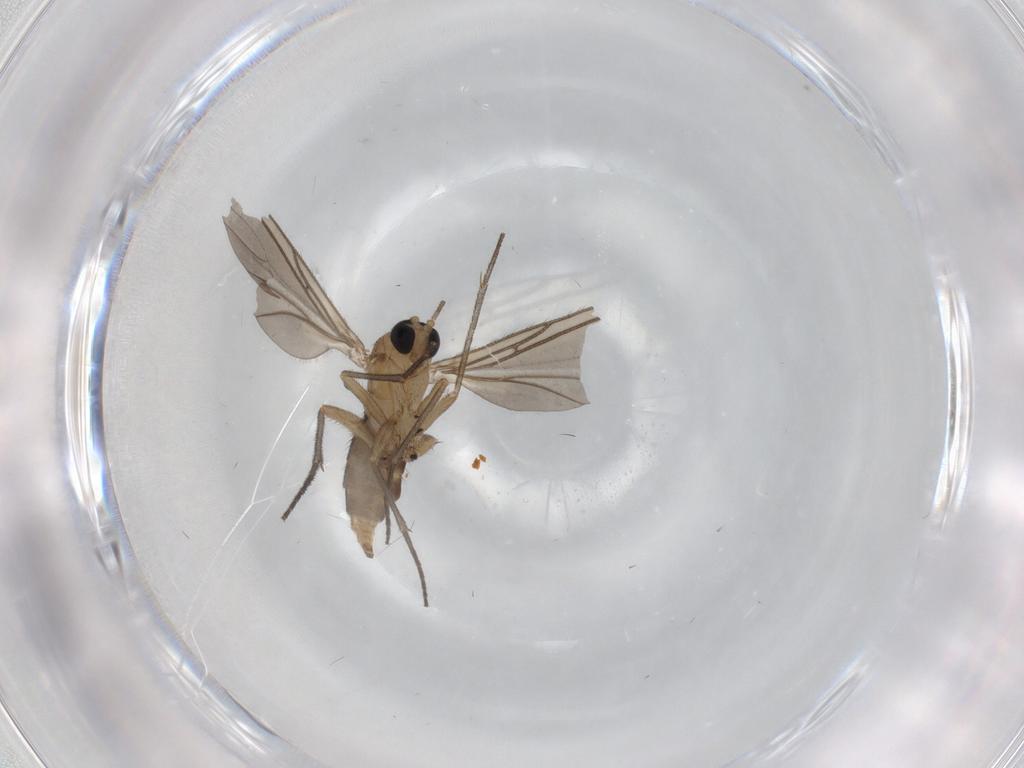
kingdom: Animalia
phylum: Arthropoda
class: Insecta
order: Diptera
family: Sciaridae
